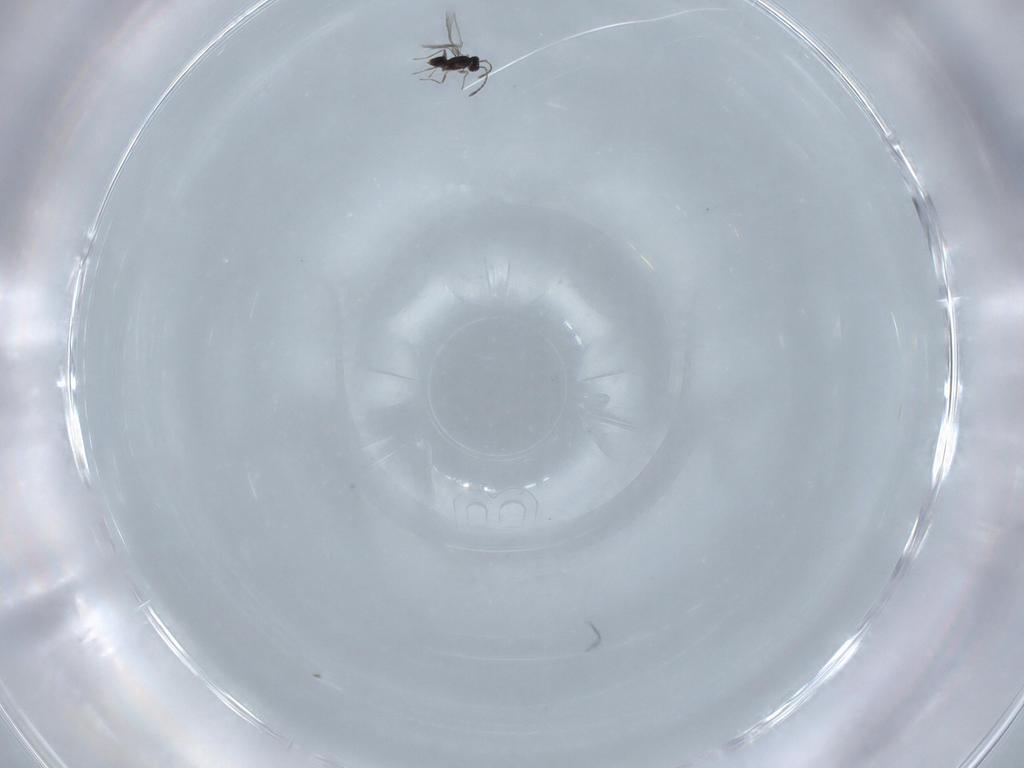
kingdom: Animalia
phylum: Arthropoda
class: Insecta
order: Hymenoptera
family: Mymaridae
